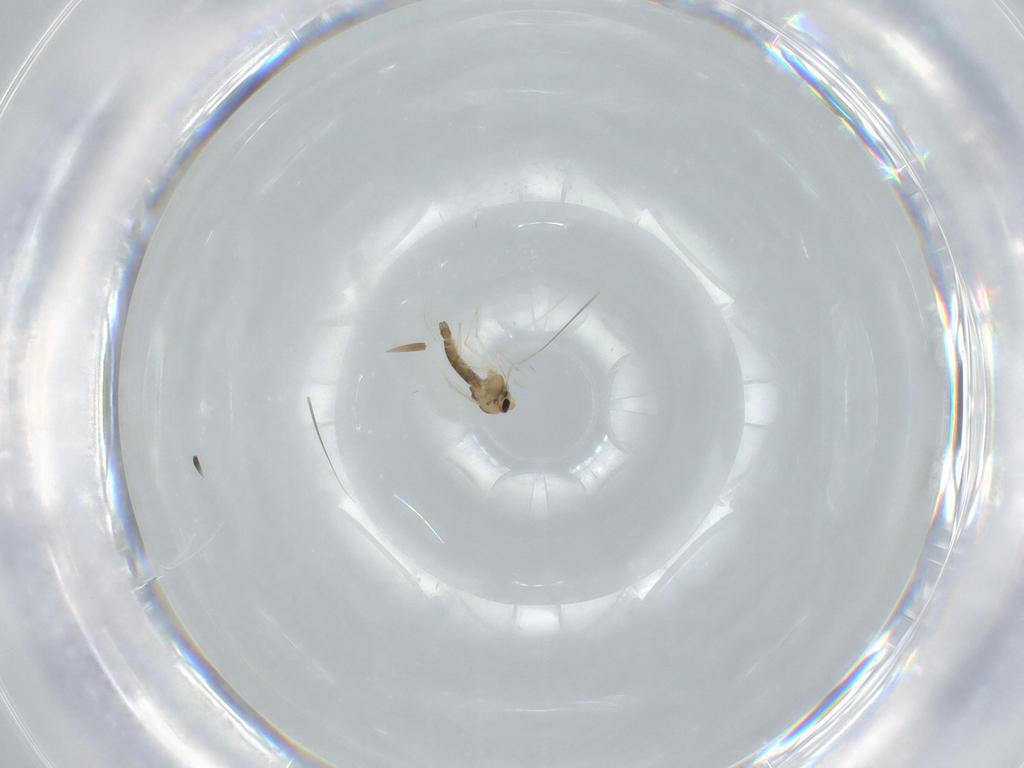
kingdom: Animalia
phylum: Arthropoda
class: Insecta
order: Diptera
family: Chironomidae
